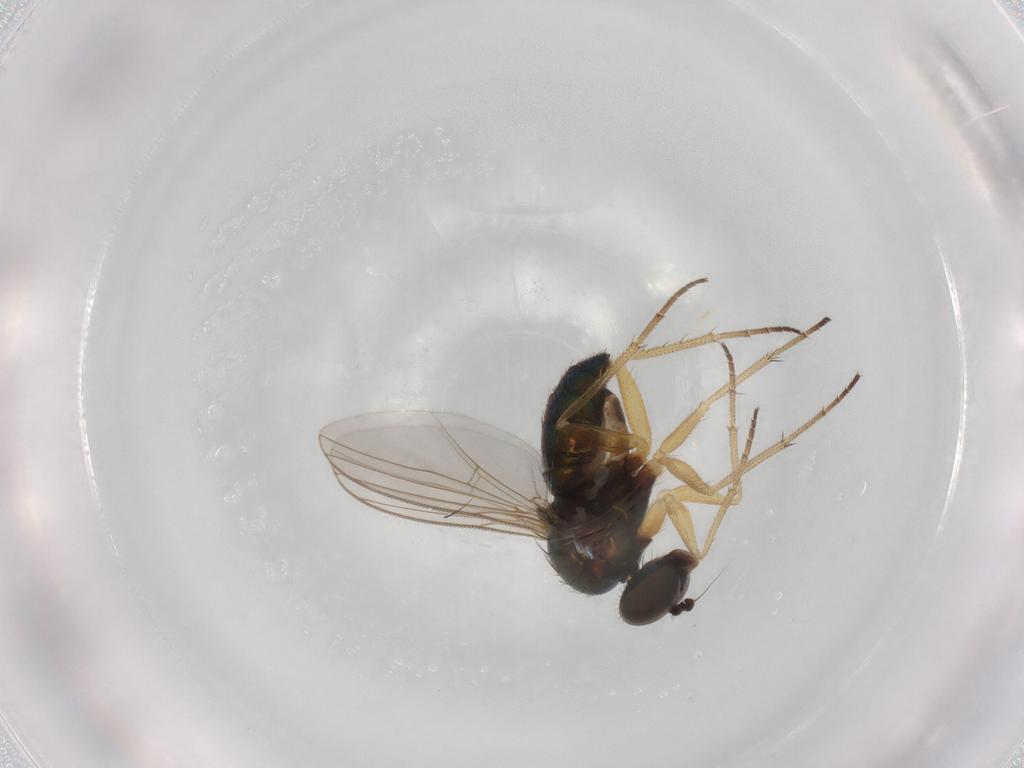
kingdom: Animalia
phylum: Arthropoda
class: Insecta
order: Diptera
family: Dolichopodidae
